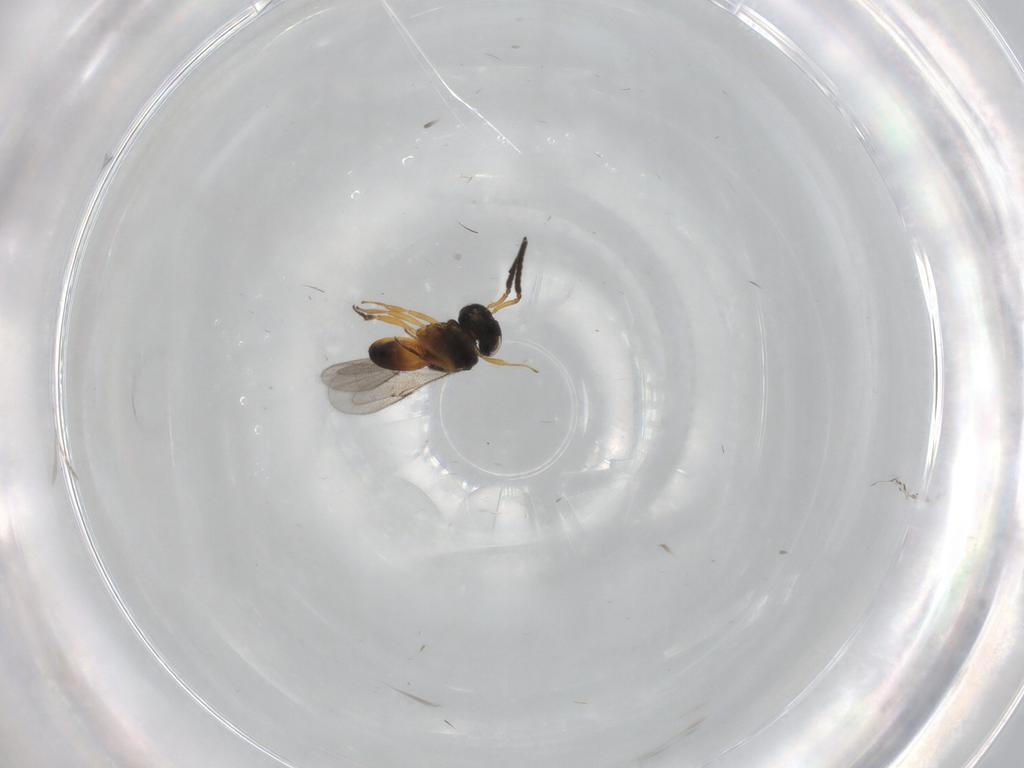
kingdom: Animalia
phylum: Arthropoda
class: Insecta
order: Hymenoptera
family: Scelionidae
